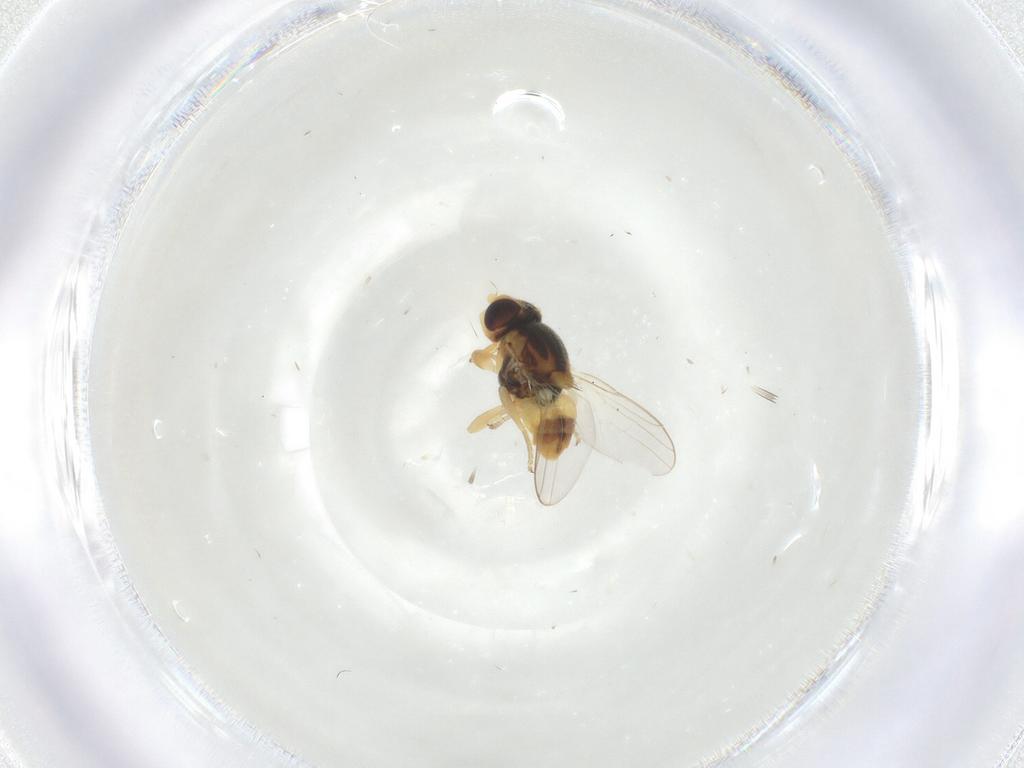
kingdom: Animalia
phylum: Arthropoda
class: Insecta
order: Diptera
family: Chloropidae
